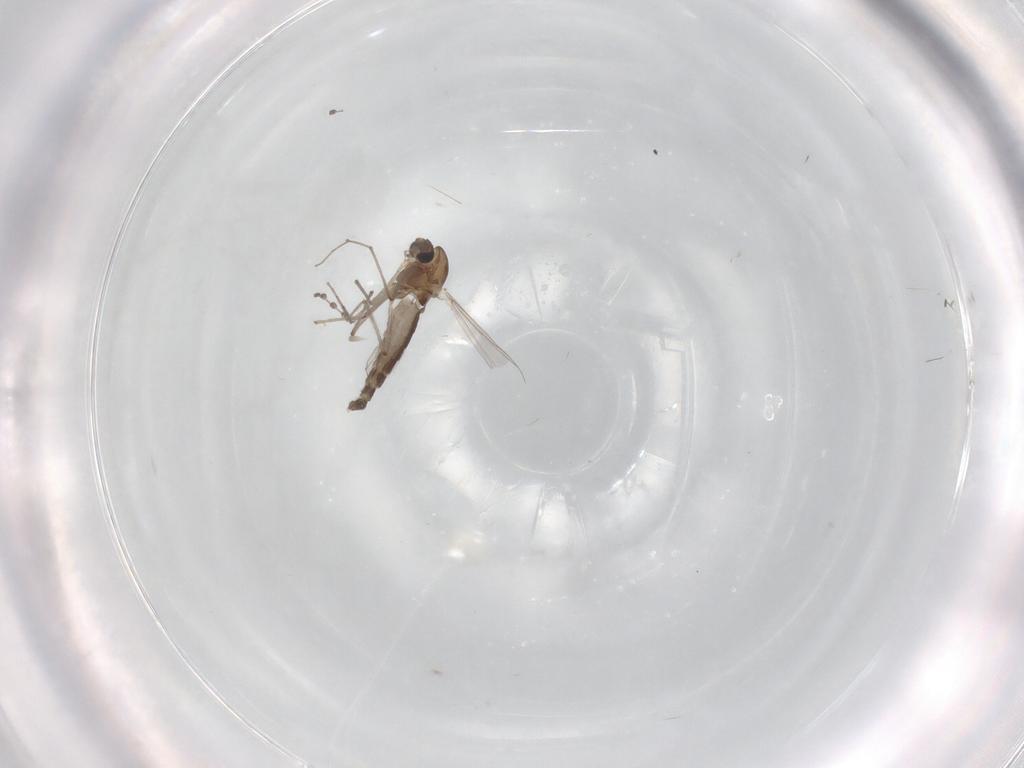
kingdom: Animalia
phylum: Arthropoda
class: Insecta
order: Diptera
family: Chironomidae
